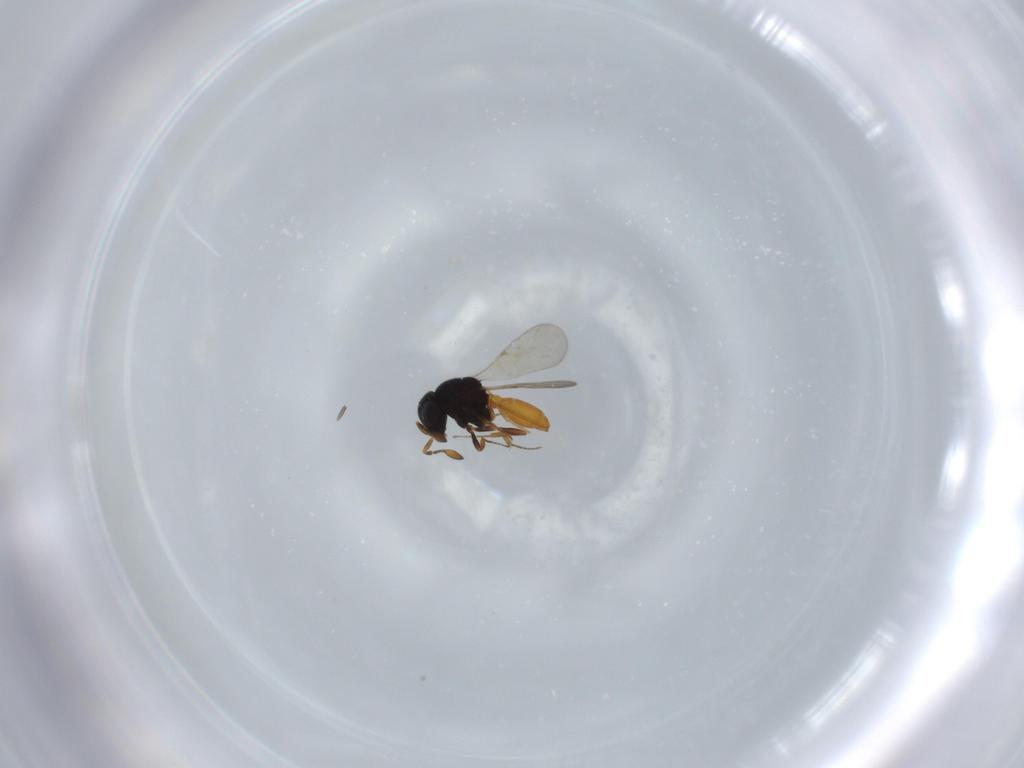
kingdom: Animalia
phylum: Arthropoda
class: Insecta
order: Hymenoptera
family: Scelionidae
